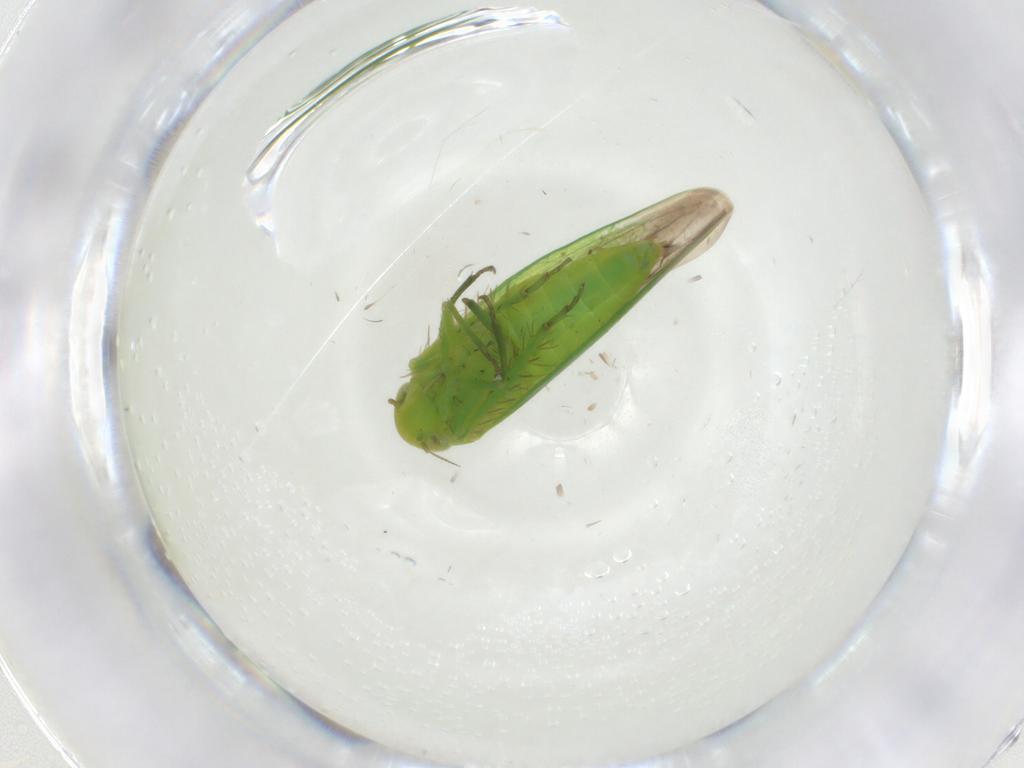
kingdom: Animalia
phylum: Arthropoda
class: Insecta
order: Hemiptera
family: Cicadellidae
